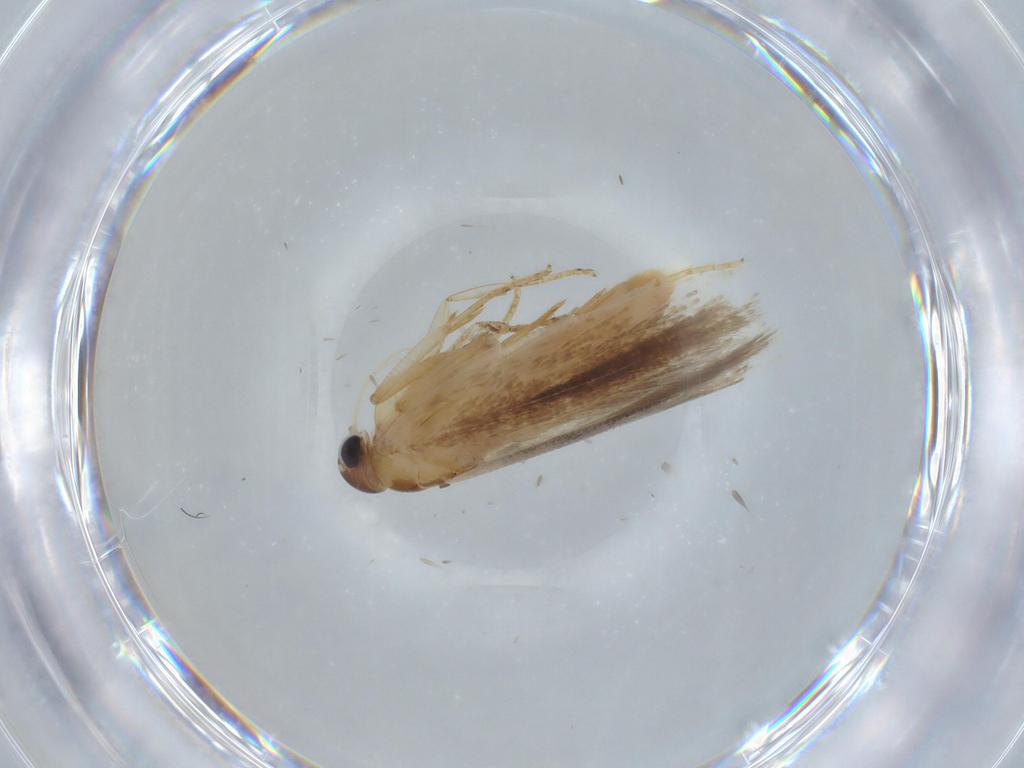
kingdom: Animalia
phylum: Arthropoda
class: Insecta
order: Lepidoptera
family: Gelechiidae
